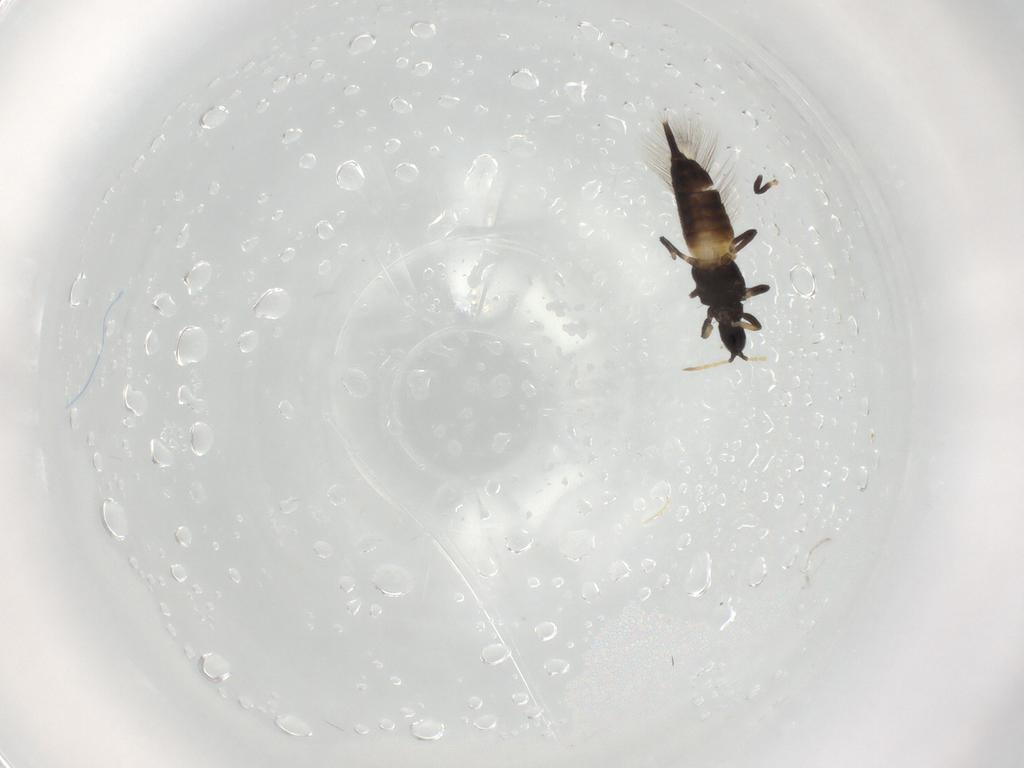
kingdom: Animalia
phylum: Arthropoda
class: Insecta
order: Thysanoptera
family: Phlaeothripidae
